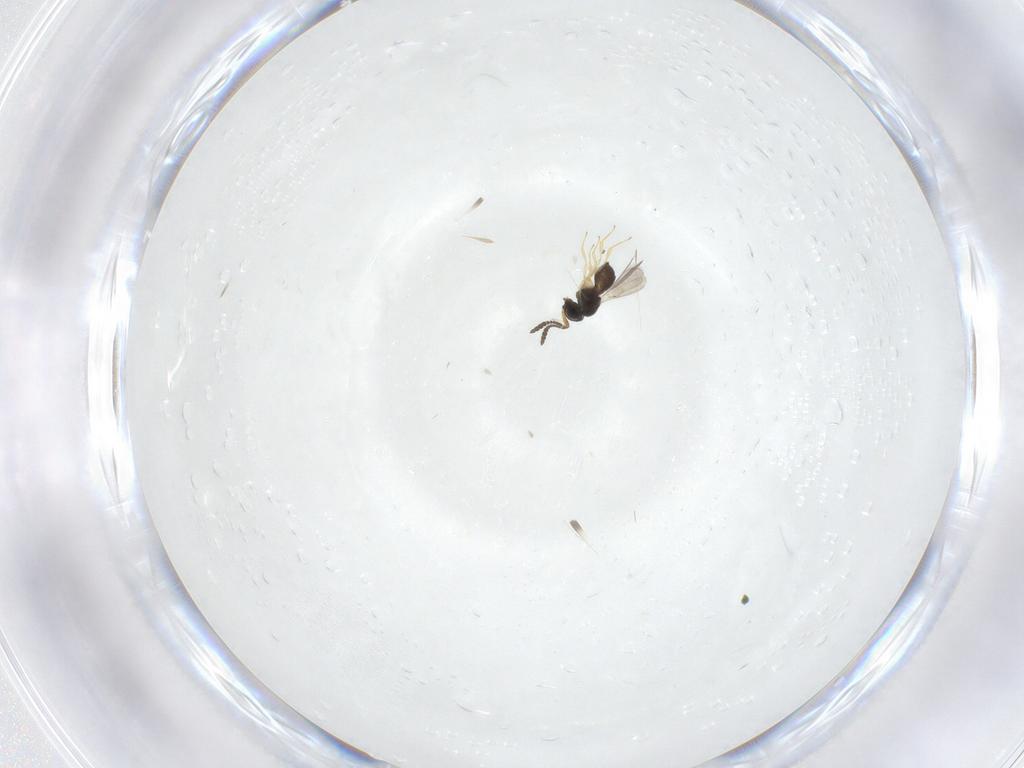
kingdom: Animalia
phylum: Arthropoda
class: Insecta
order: Hymenoptera
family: Scelionidae
